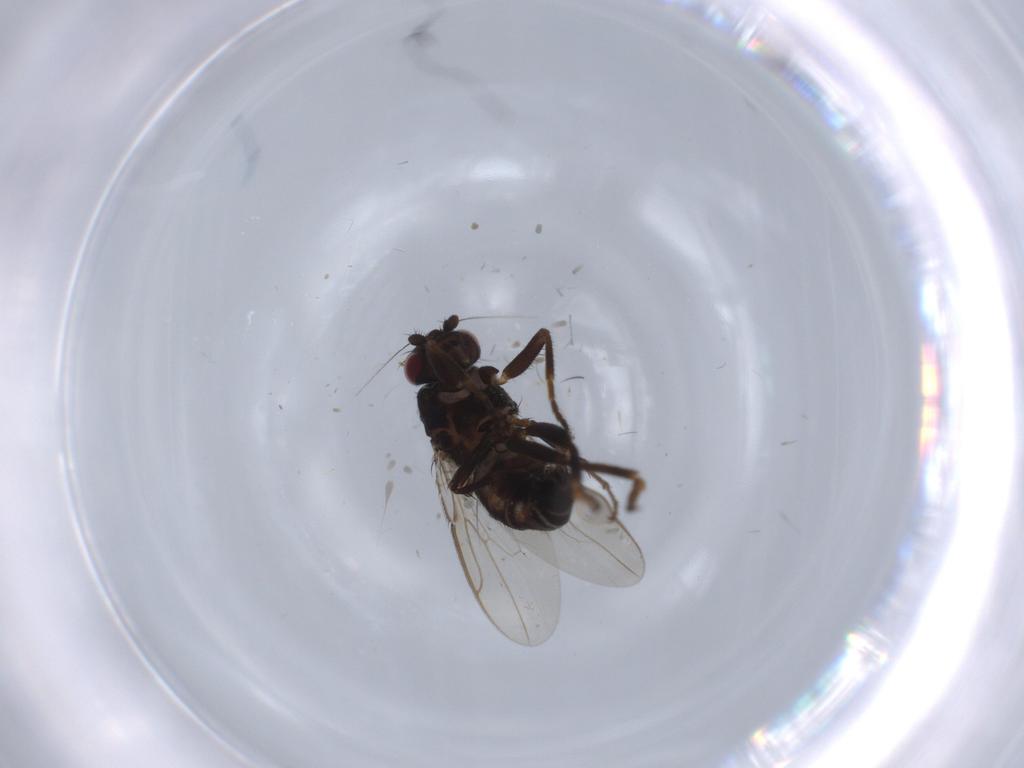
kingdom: Animalia
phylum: Arthropoda
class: Insecta
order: Diptera
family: Sphaeroceridae
